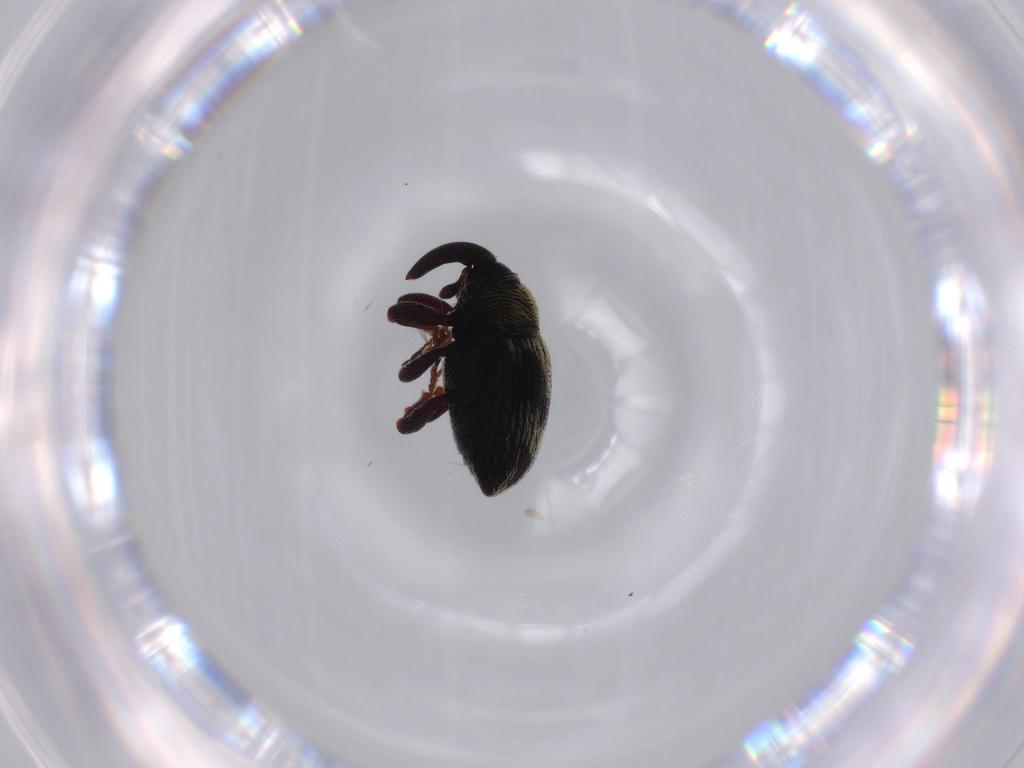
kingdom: Animalia
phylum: Arthropoda
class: Insecta
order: Coleoptera
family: Curculionidae
